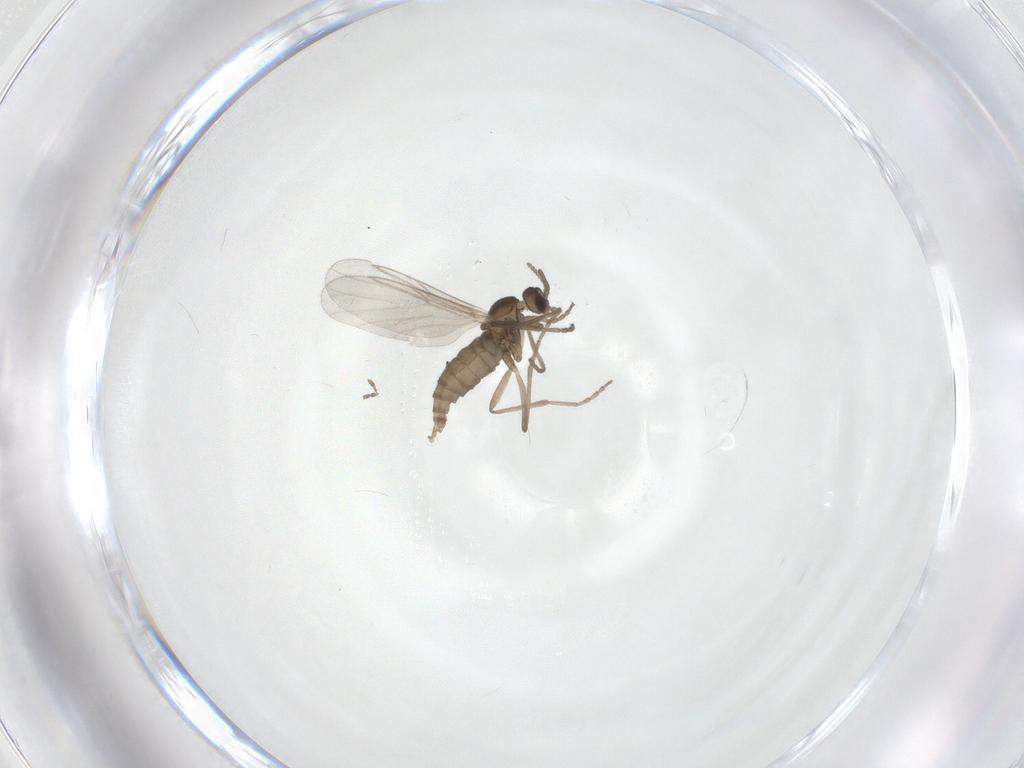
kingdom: Animalia
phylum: Arthropoda
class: Insecta
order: Diptera
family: Cecidomyiidae
